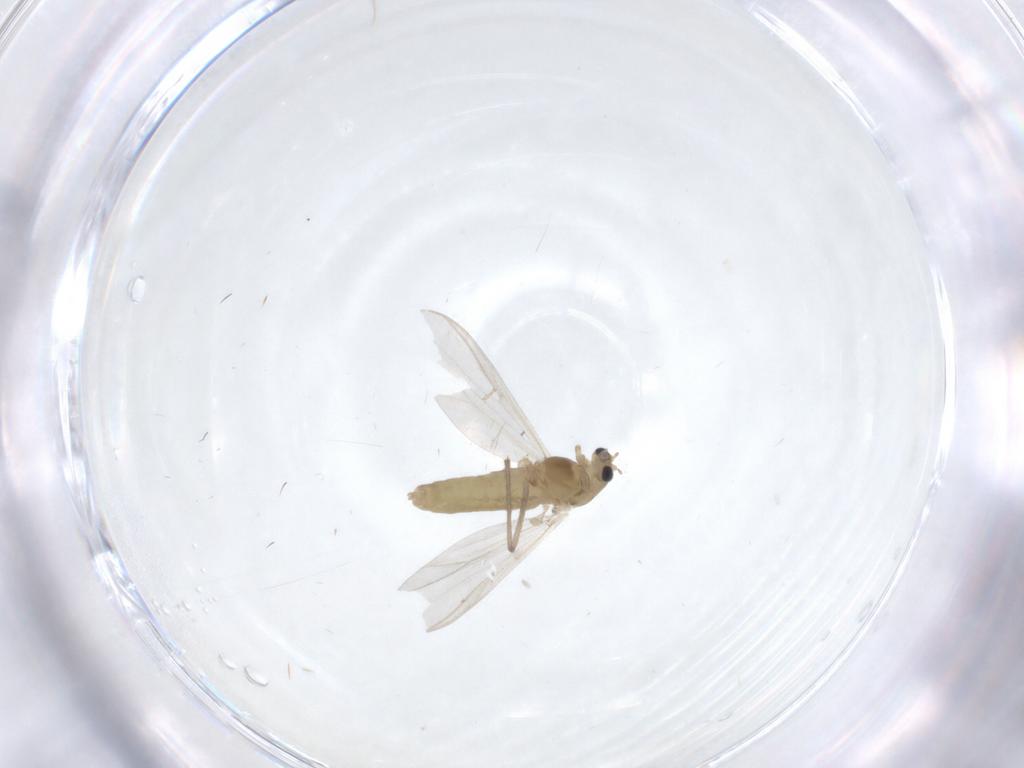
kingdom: Animalia
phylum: Arthropoda
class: Insecta
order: Diptera
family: Chironomidae
